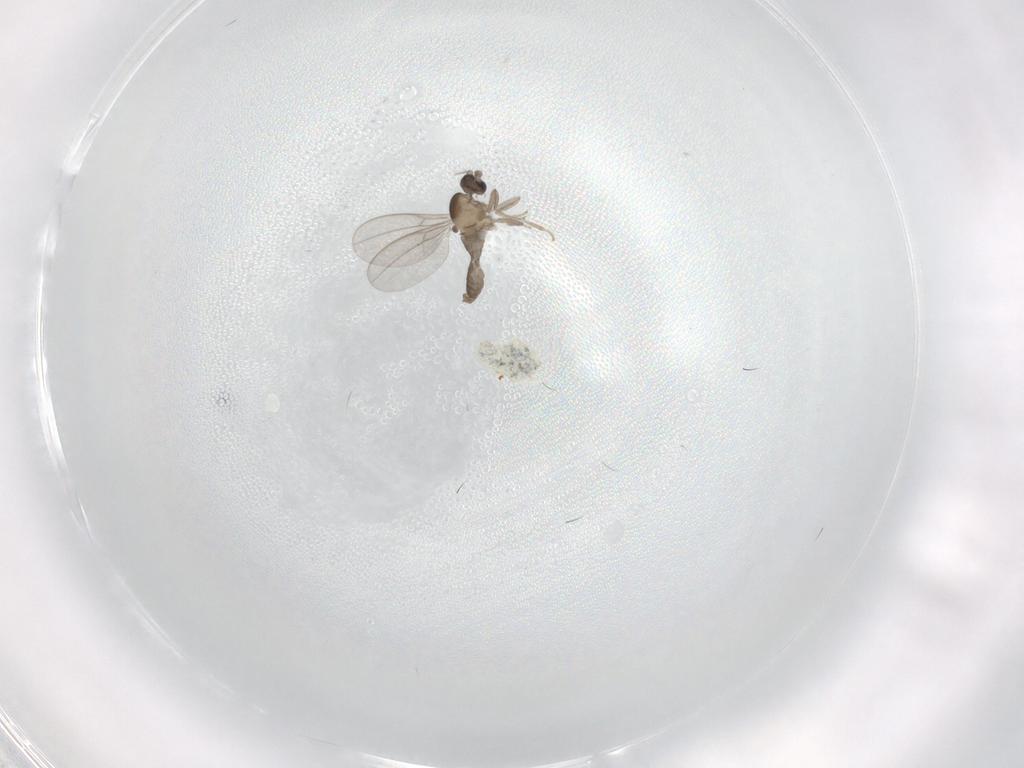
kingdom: Animalia
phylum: Arthropoda
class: Insecta
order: Diptera
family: Cecidomyiidae
